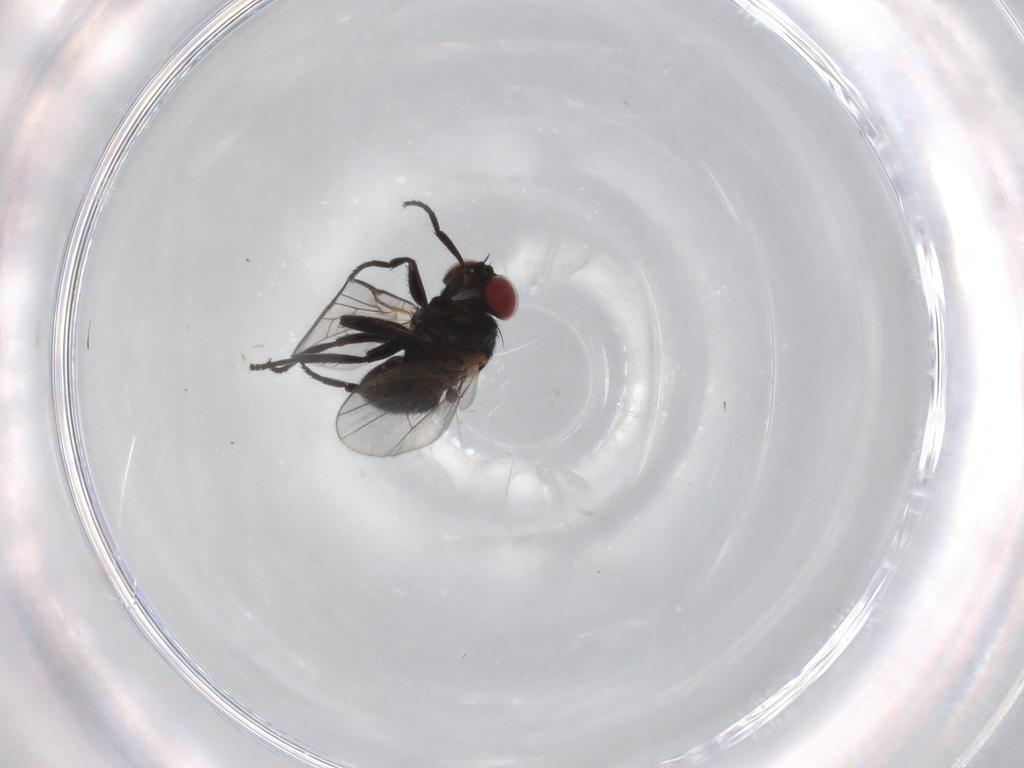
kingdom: Animalia
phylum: Arthropoda
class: Insecta
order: Diptera
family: Agromyzidae
